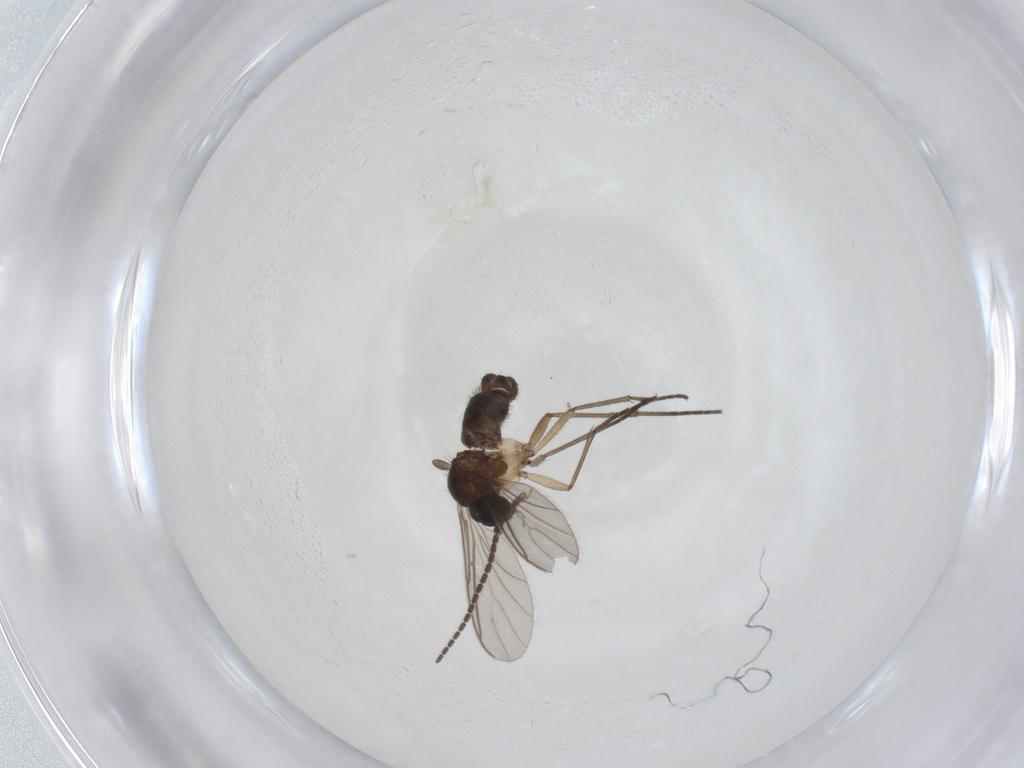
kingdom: Animalia
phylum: Arthropoda
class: Insecta
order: Diptera
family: Sciaridae
